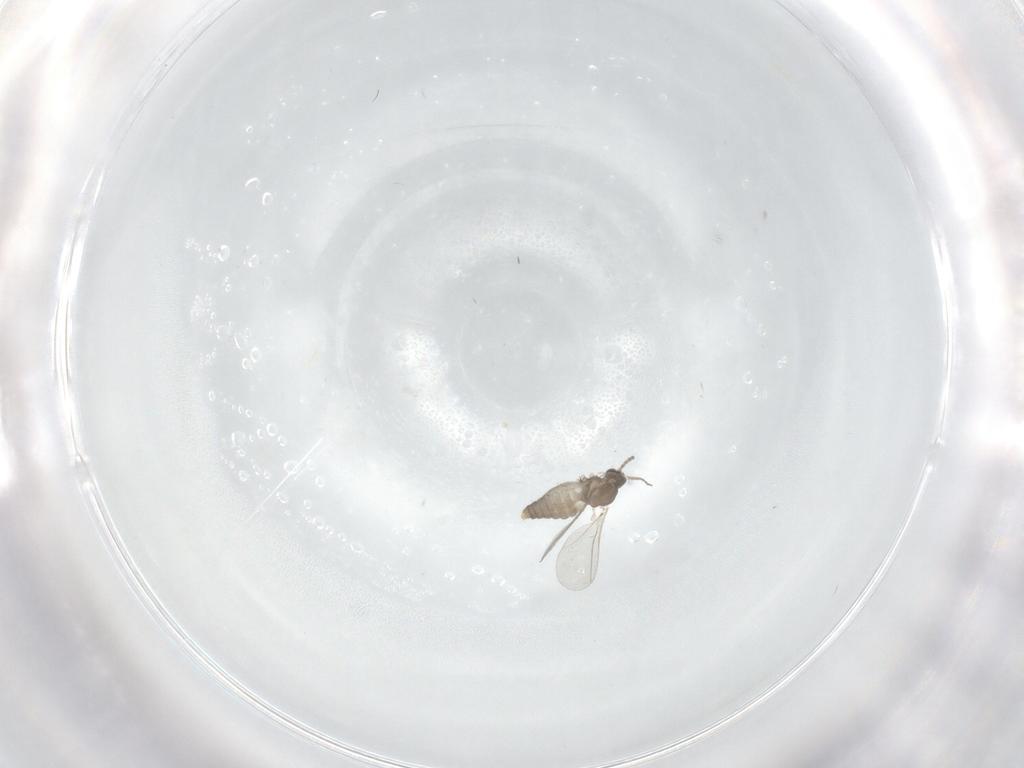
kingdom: Animalia
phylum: Arthropoda
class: Insecta
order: Diptera
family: Cecidomyiidae
